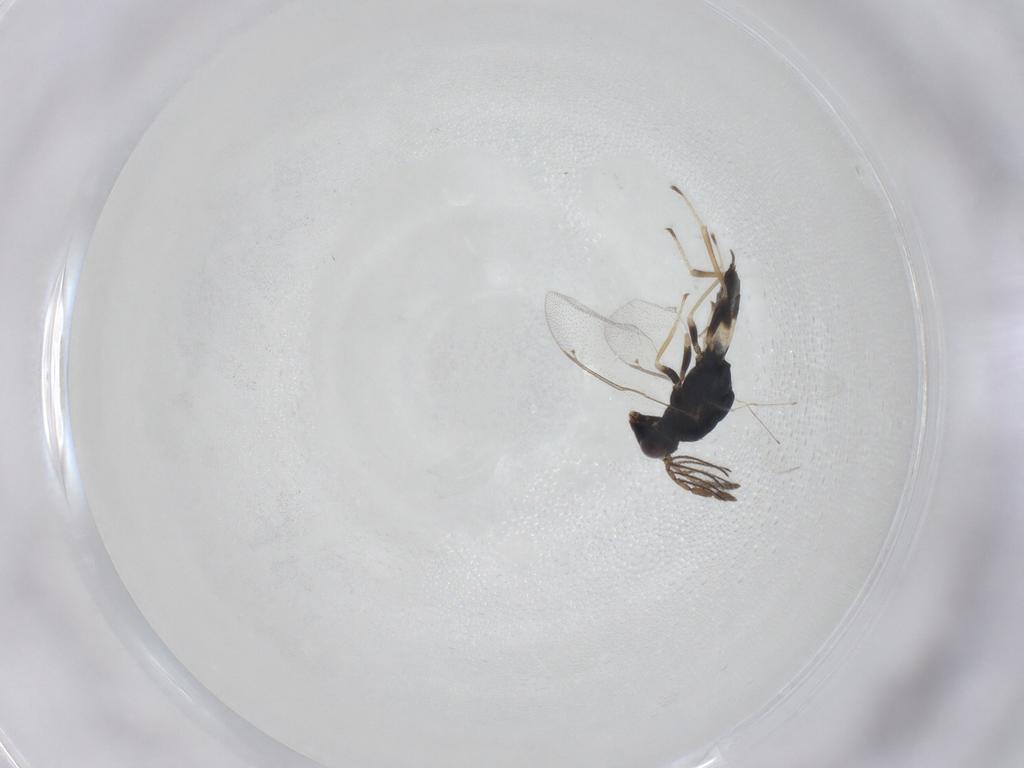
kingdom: Animalia
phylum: Arthropoda
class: Insecta
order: Hymenoptera
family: Eulophidae
